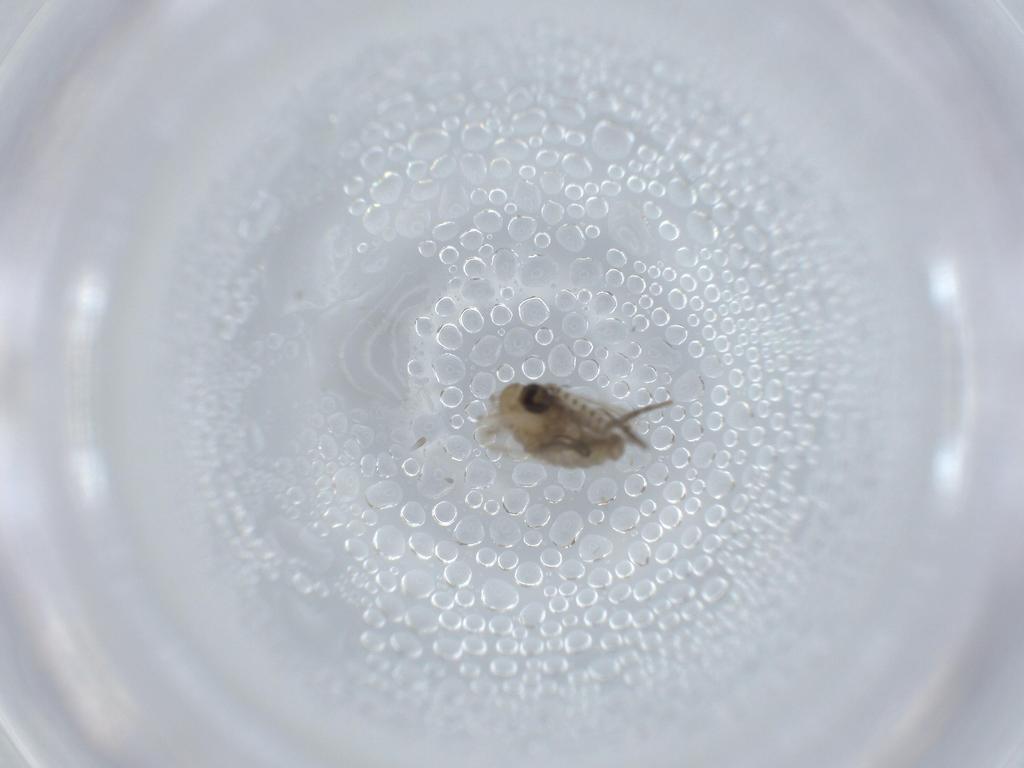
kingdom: Animalia
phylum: Arthropoda
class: Insecta
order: Diptera
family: Psychodidae
